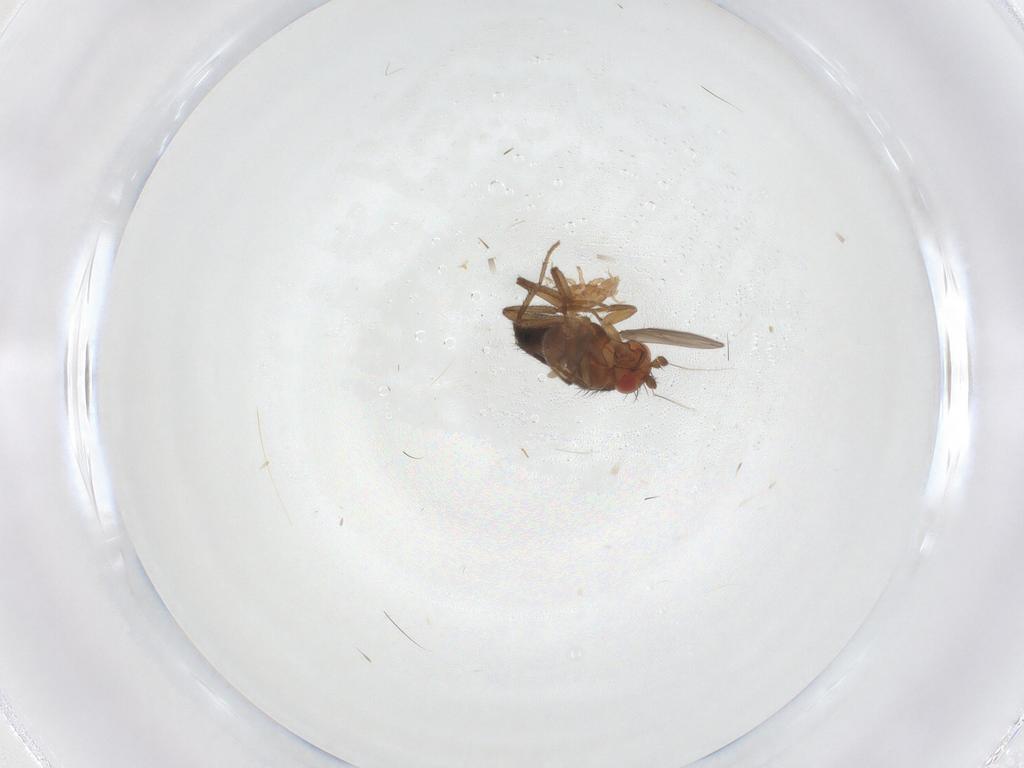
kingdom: Animalia
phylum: Arthropoda
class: Insecta
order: Diptera
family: Sphaeroceridae
